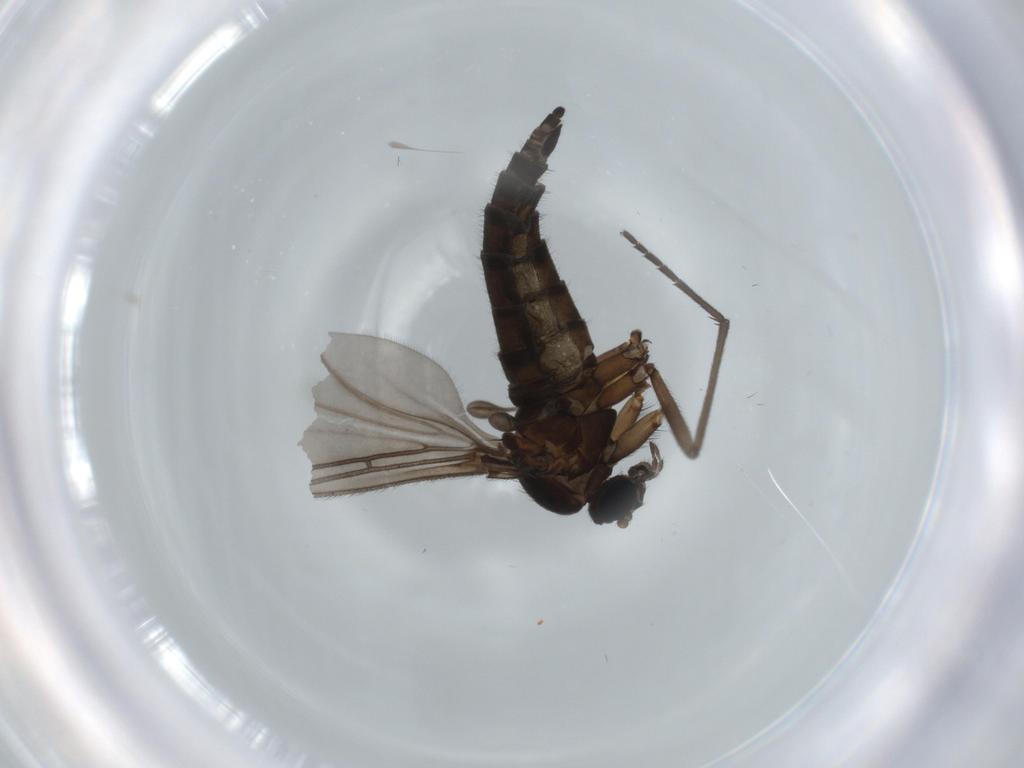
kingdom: Animalia
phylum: Arthropoda
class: Insecta
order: Diptera
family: Sciaridae
